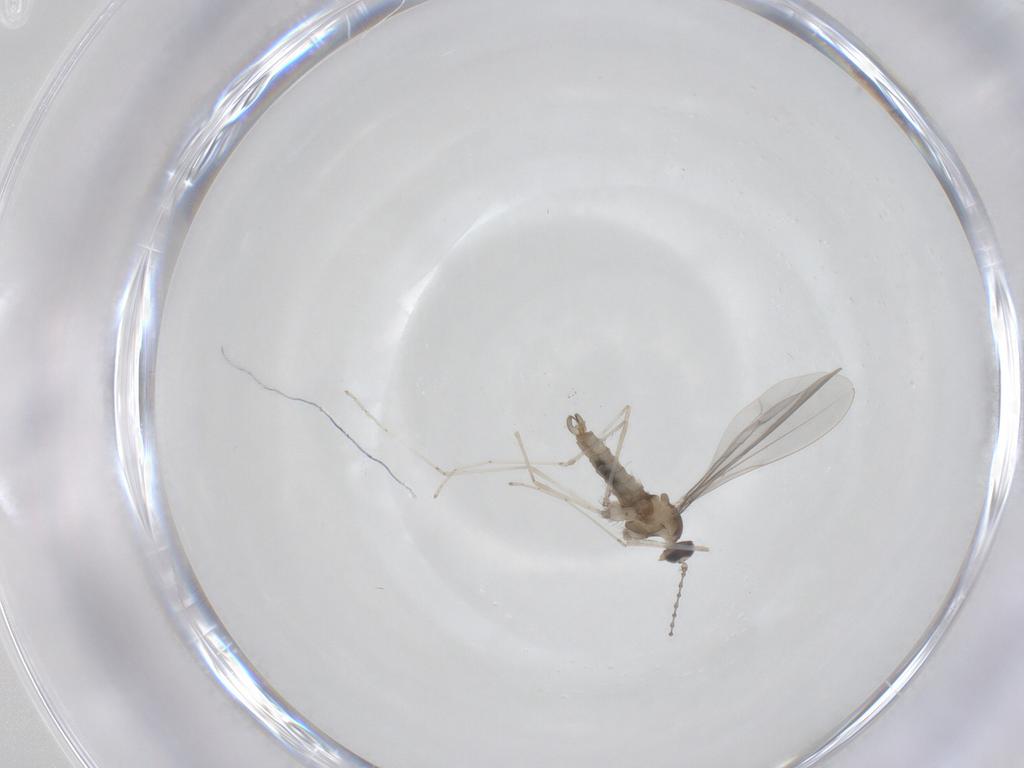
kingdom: Animalia
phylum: Arthropoda
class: Insecta
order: Diptera
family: Cecidomyiidae
